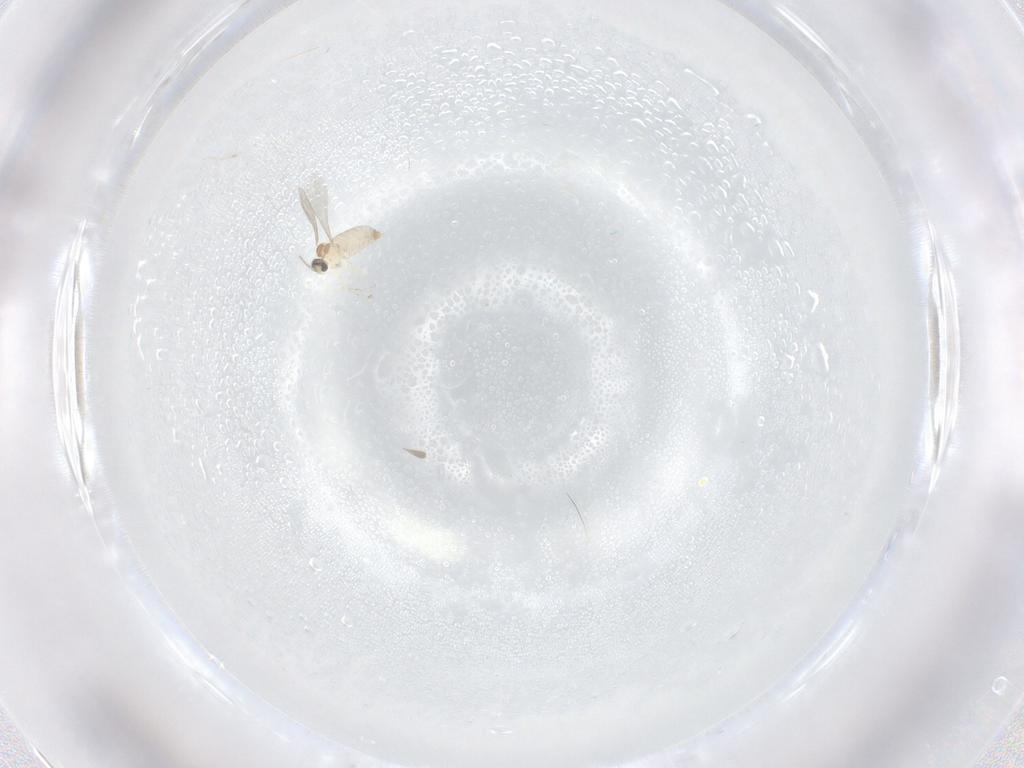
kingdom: Animalia
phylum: Arthropoda
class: Insecta
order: Diptera
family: Cecidomyiidae
